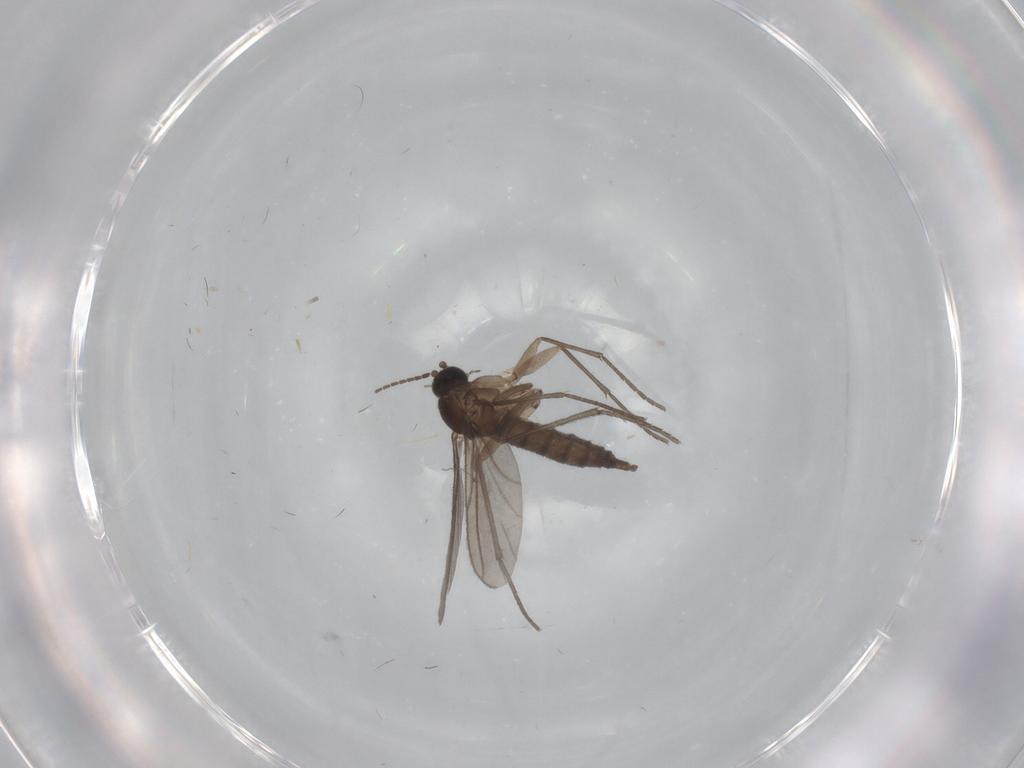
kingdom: Animalia
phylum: Arthropoda
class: Insecta
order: Diptera
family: Sciaridae
